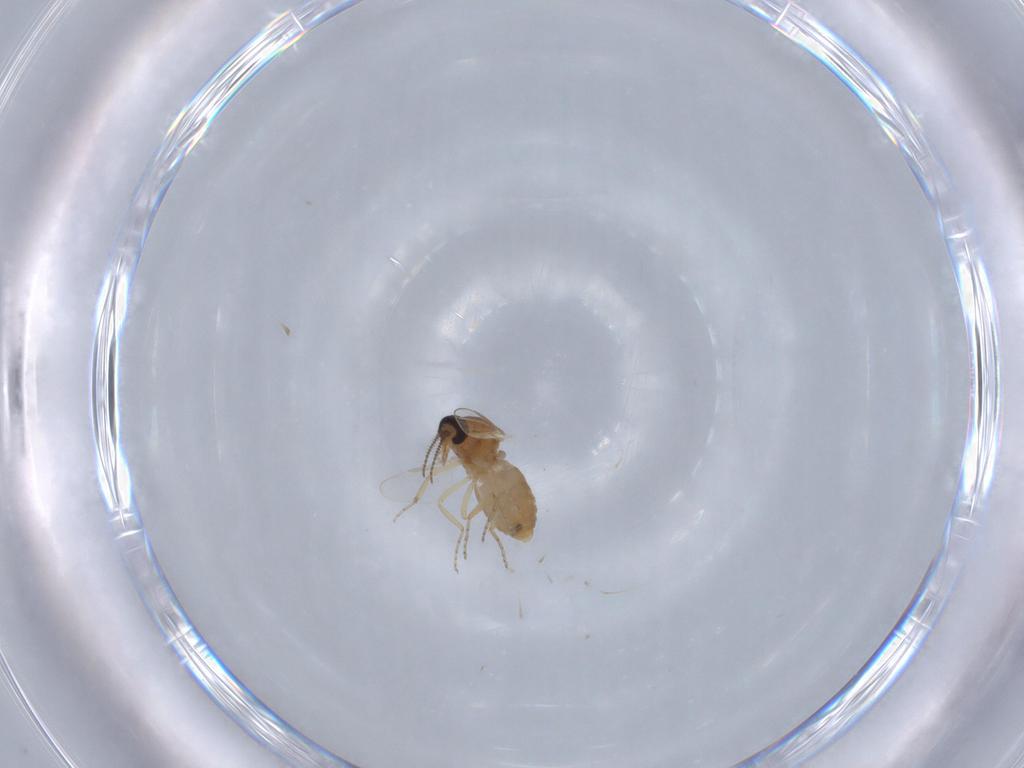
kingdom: Animalia
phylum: Arthropoda
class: Insecta
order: Diptera
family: Ceratopogonidae
